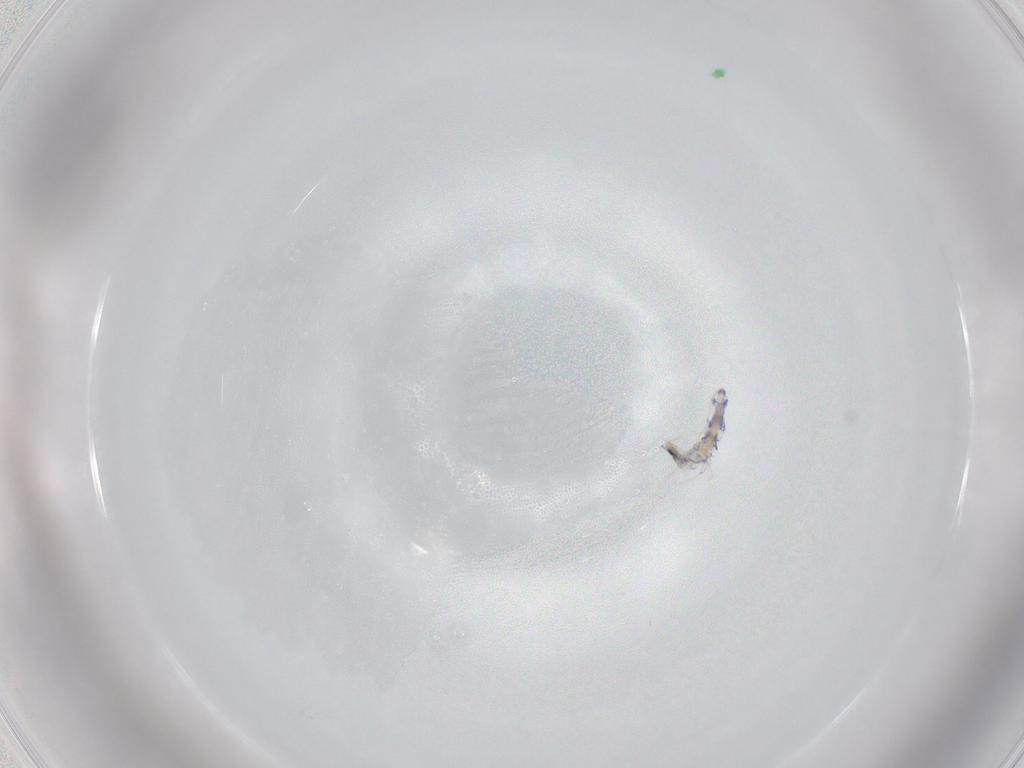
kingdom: Animalia
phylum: Arthropoda
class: Collembola
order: Entomobryomorpha
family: Entomobryidae
